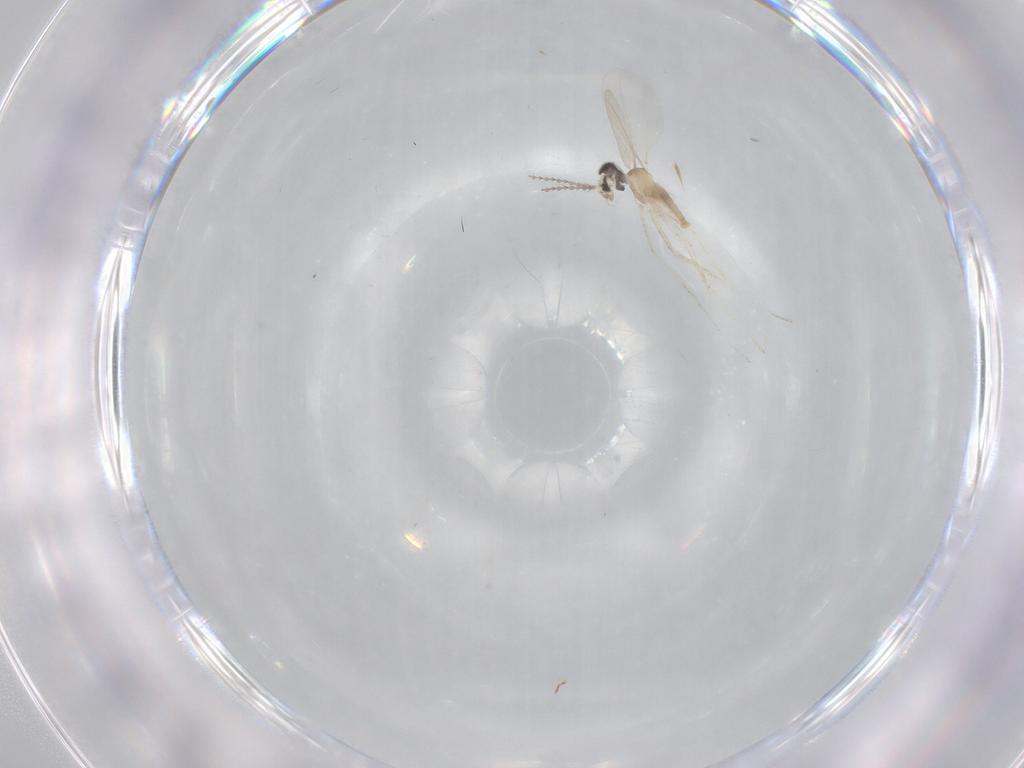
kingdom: Animalia
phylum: Arthropoda
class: Insecta
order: Diptera
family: Cecidomyiidae
